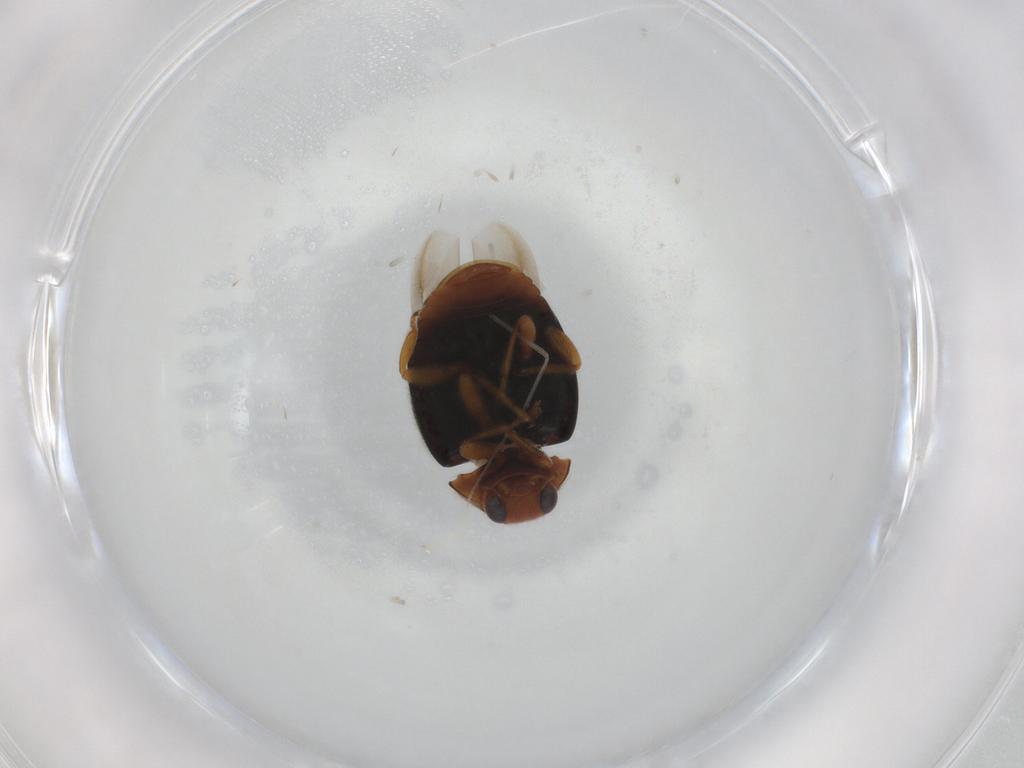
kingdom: Animalia
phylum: Arthropoda
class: Insecta
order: Coleoptera
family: Coccinellidae
